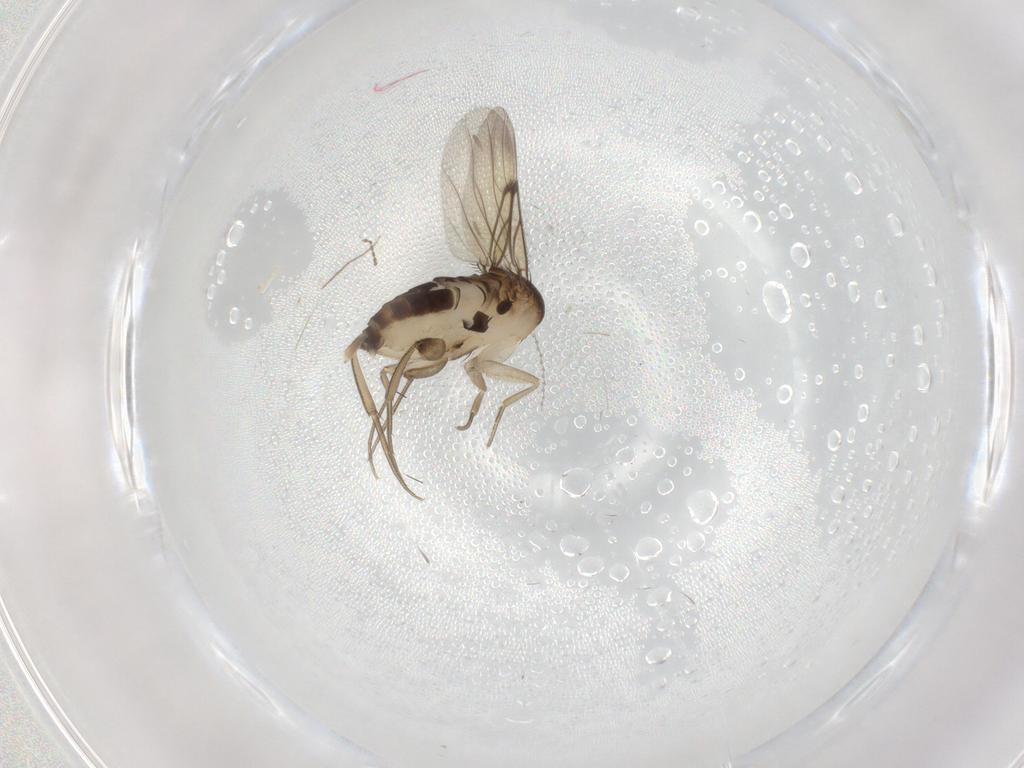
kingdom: Animalia
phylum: Arthropoda
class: Insecta
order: Diptera
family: Phoridae
